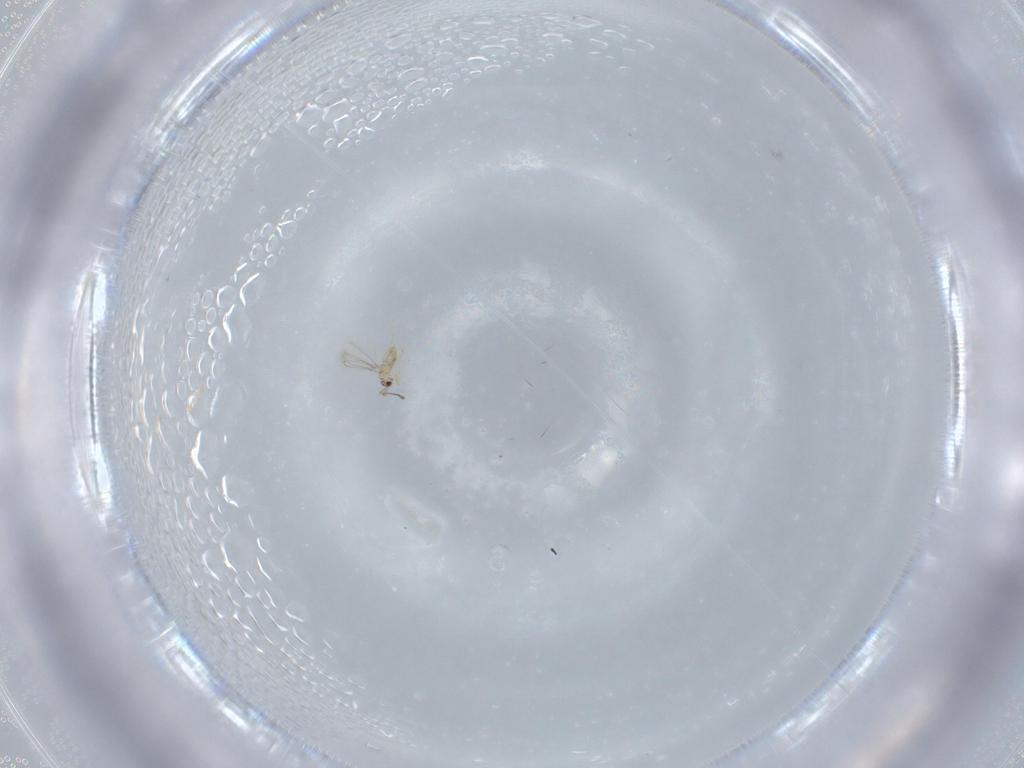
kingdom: Animalia
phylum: Arthropoda
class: Insecta
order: Hymenoptera
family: Mymaridae
